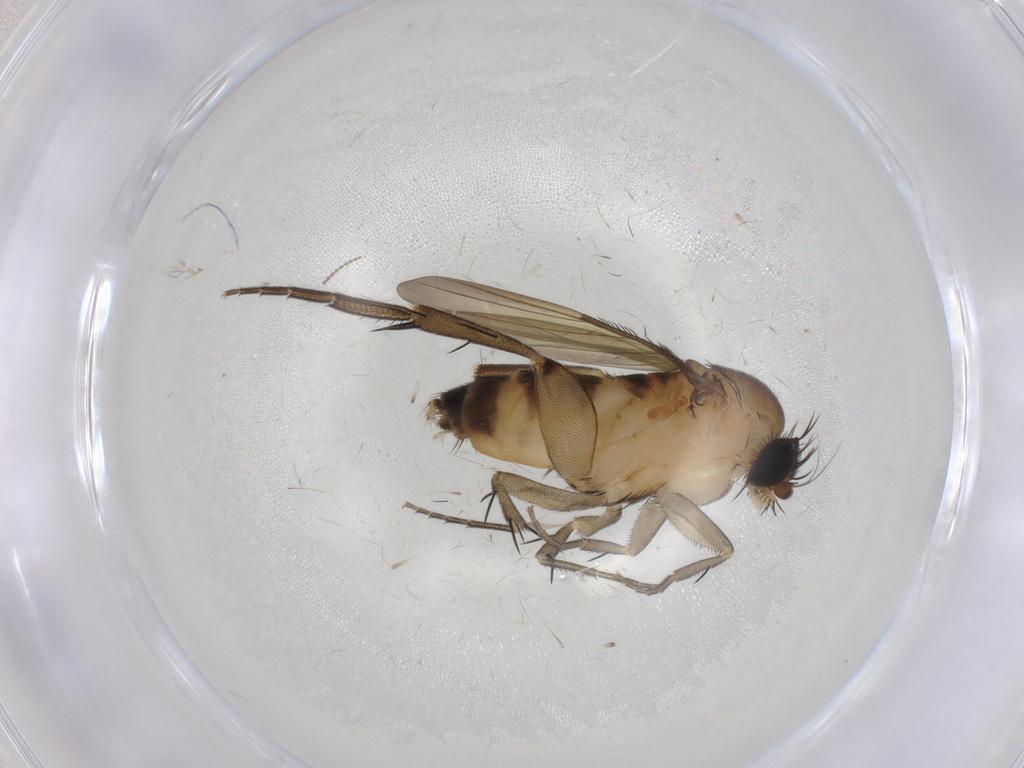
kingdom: Animalia
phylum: Arthropoda
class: Insecta
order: Diptera
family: Phoridae
